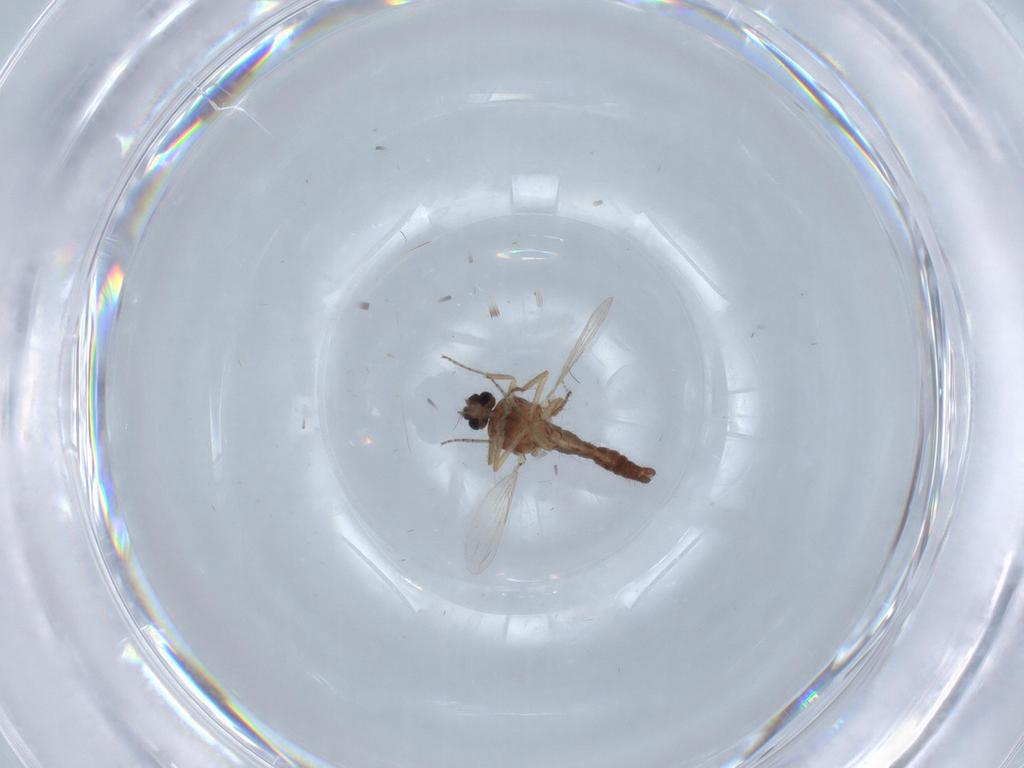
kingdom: Animalia
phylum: Arthropoda
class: Insecta
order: Diptera
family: Ceratopogonidae
